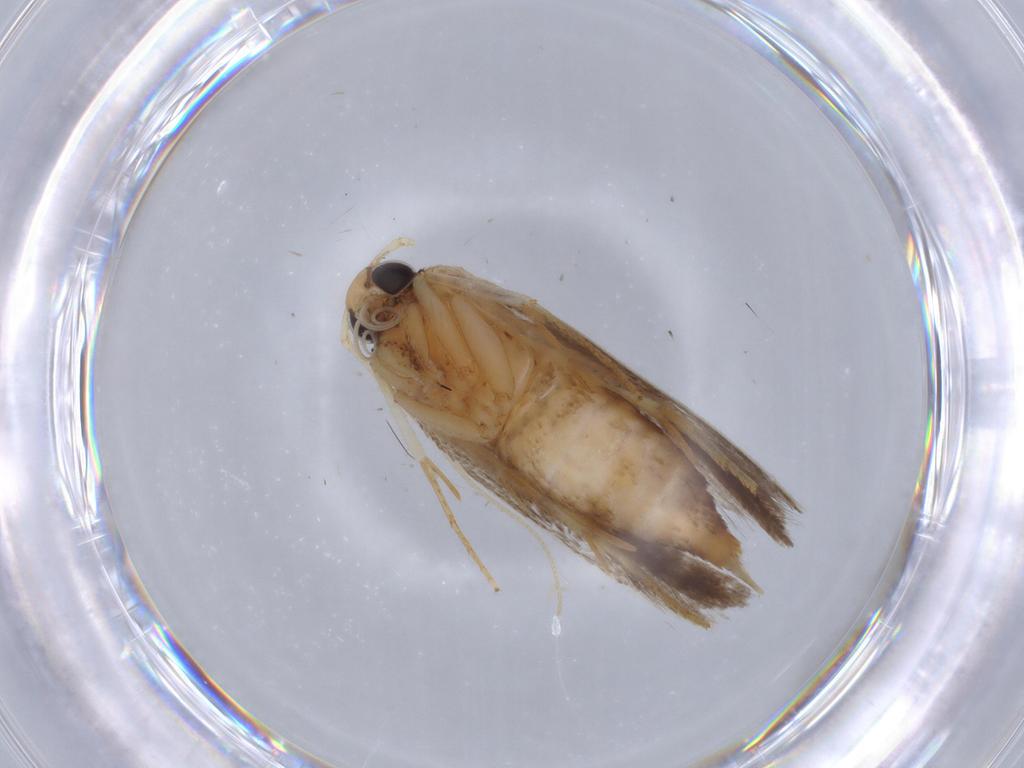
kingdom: Animalia
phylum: Arthropoda
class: Insecta
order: Lepidoptera
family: Gelechiidae
